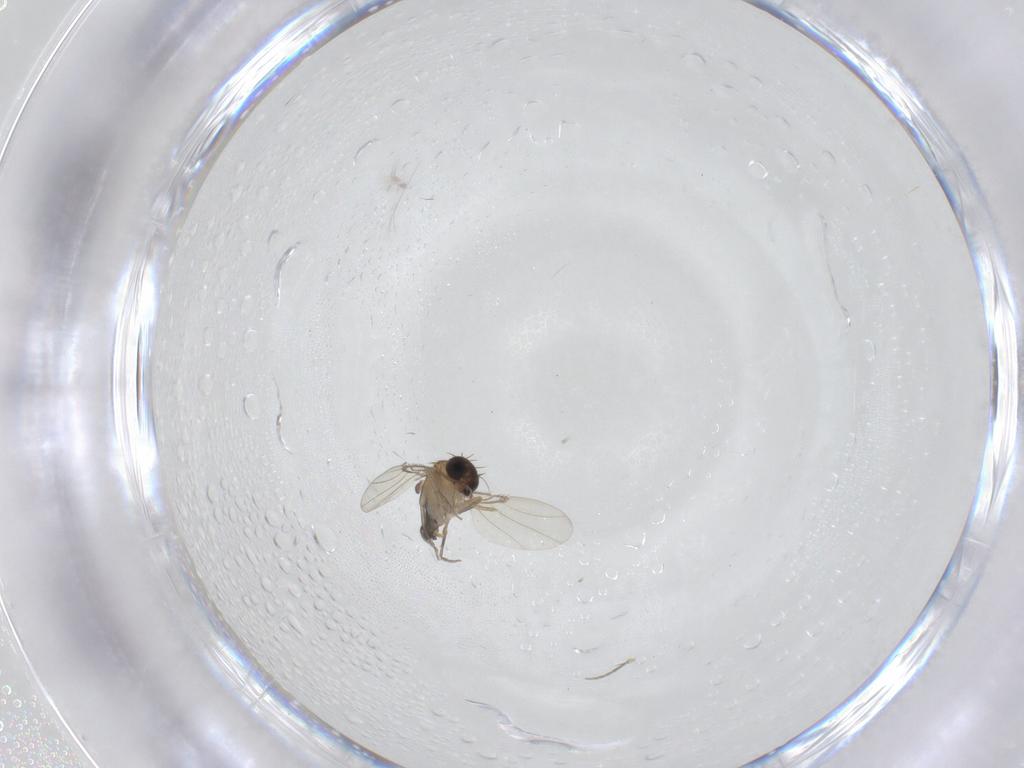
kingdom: Animalia
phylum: Arthropoda
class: Insecta
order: Diptera
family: Phoridae
